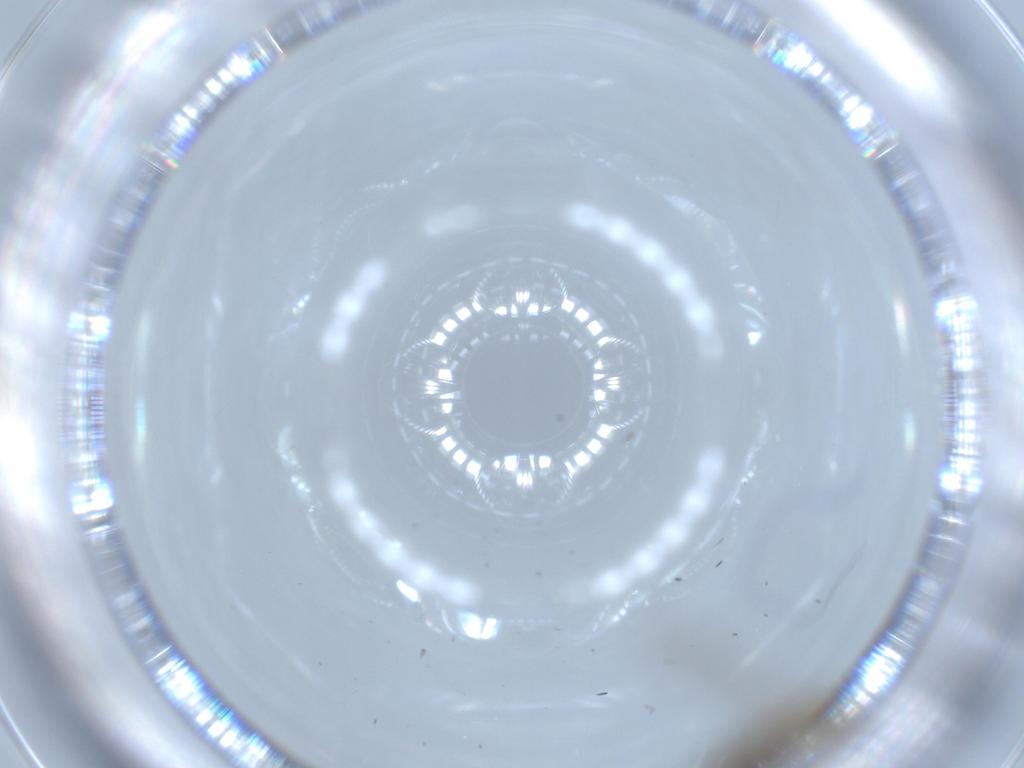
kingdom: Animalia
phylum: Arthropoda
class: Insecta
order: Diptera
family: Chironomidae
